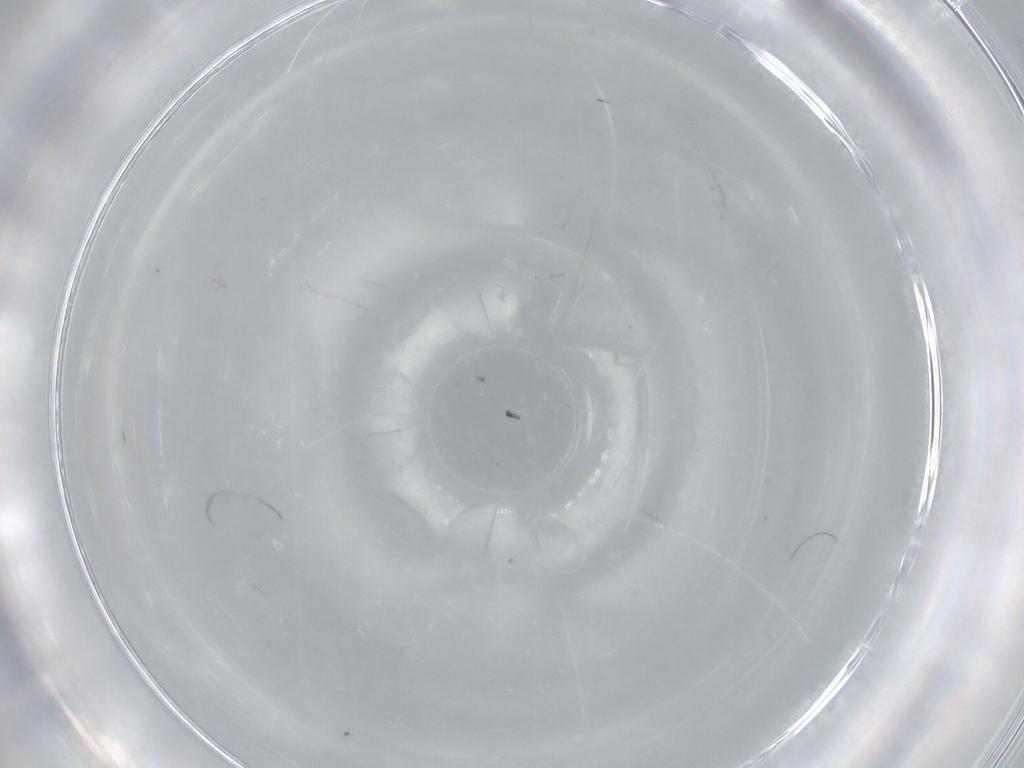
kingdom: Animalia
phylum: Arthropoda
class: Insecta
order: Diptera
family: Sciaridae
